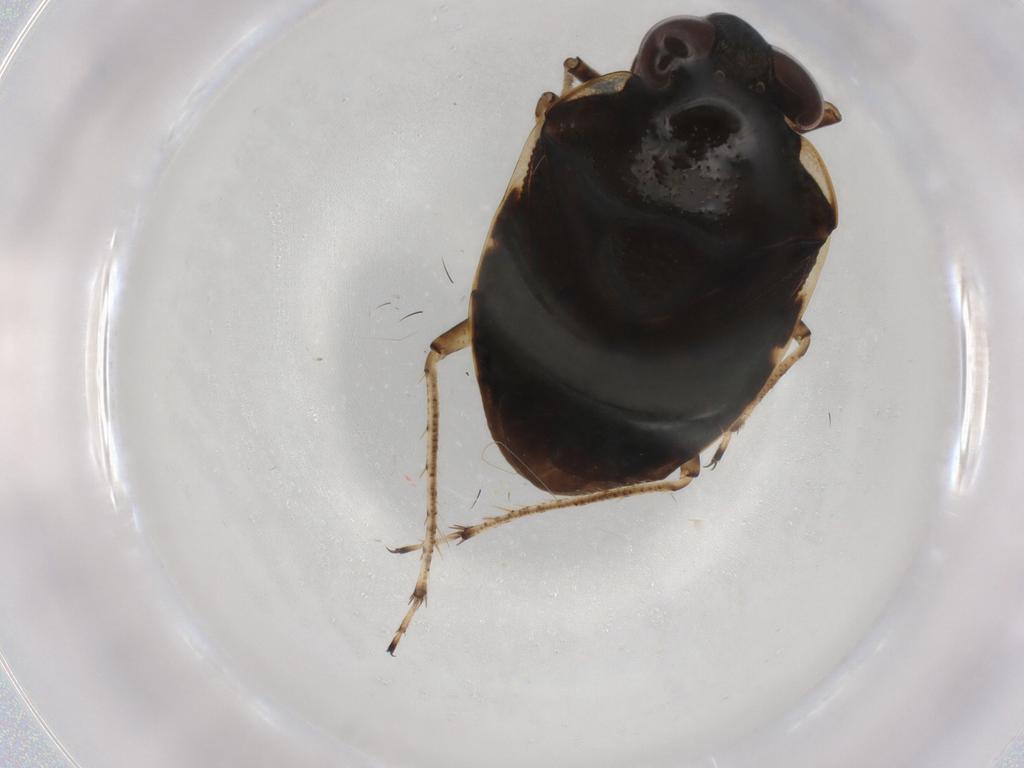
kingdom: Animalia
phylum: Arthropoda
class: Insecta
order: Hemiptera
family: Ochteridae
